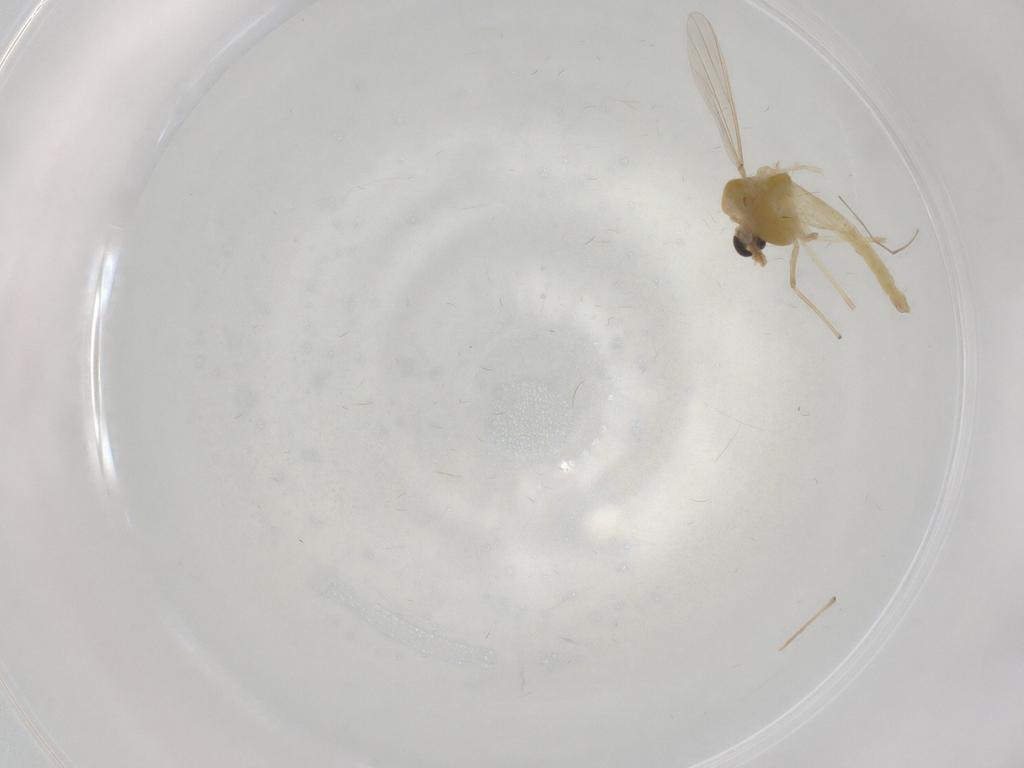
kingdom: Animalia
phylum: Arthropoda
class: Insecta
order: Diptera
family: Chironomidae
